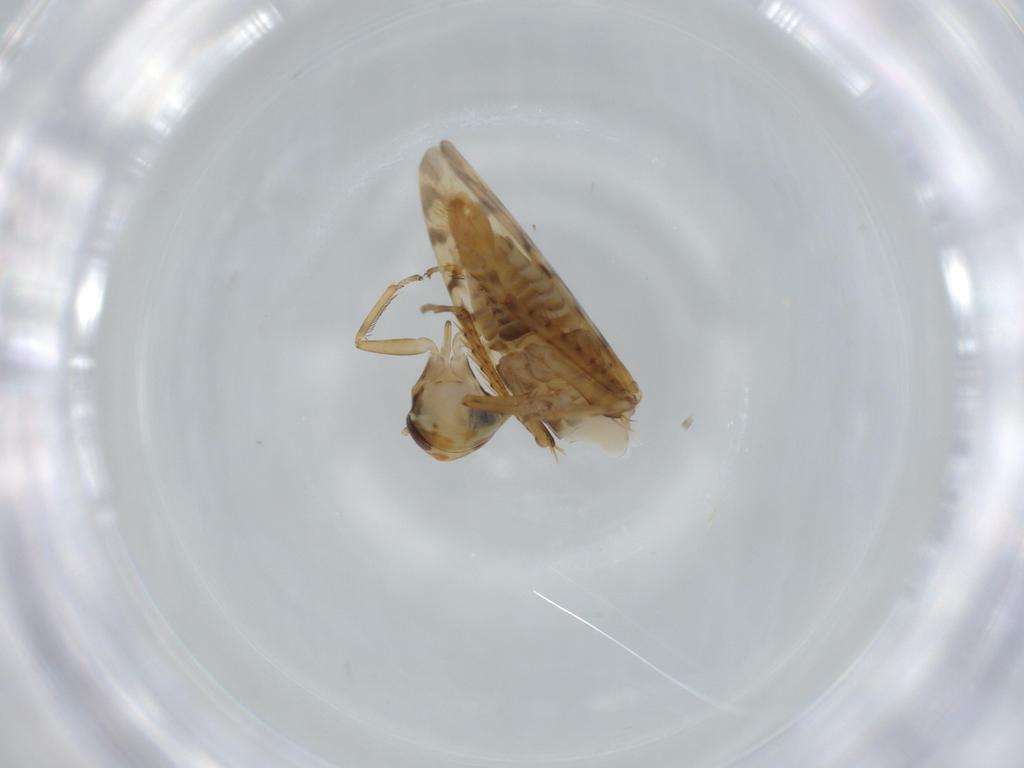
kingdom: Animalia
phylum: Arthropoda
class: Insecta
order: Hemiptera
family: Cicadellidae
